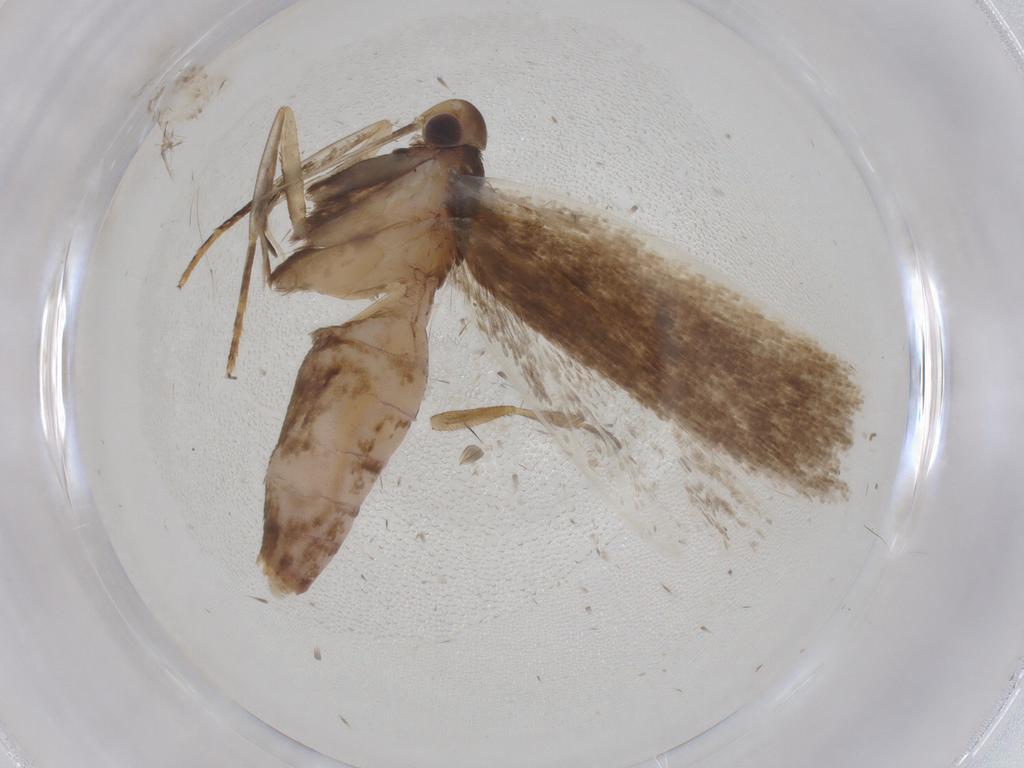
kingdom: Animalia
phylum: Arthropoda
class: Insecta
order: Lepidoptera
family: Gelechiidae
